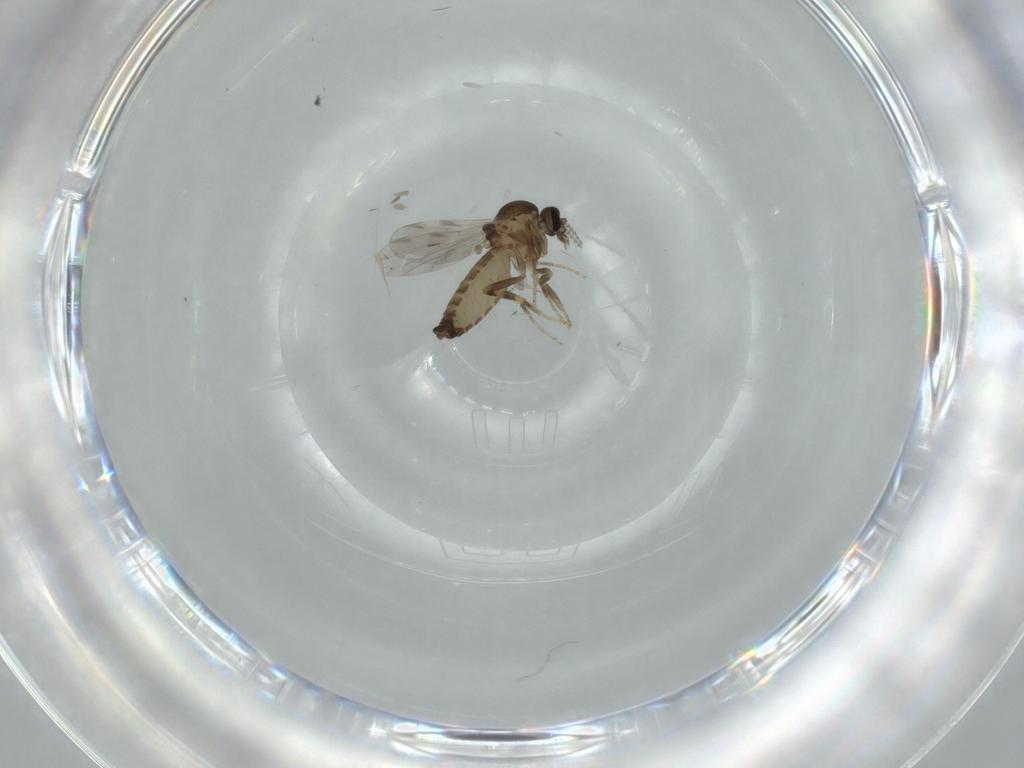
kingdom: Animalia
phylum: Arthropoda
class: Insecta
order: Diptera
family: Ceratopogonidae
